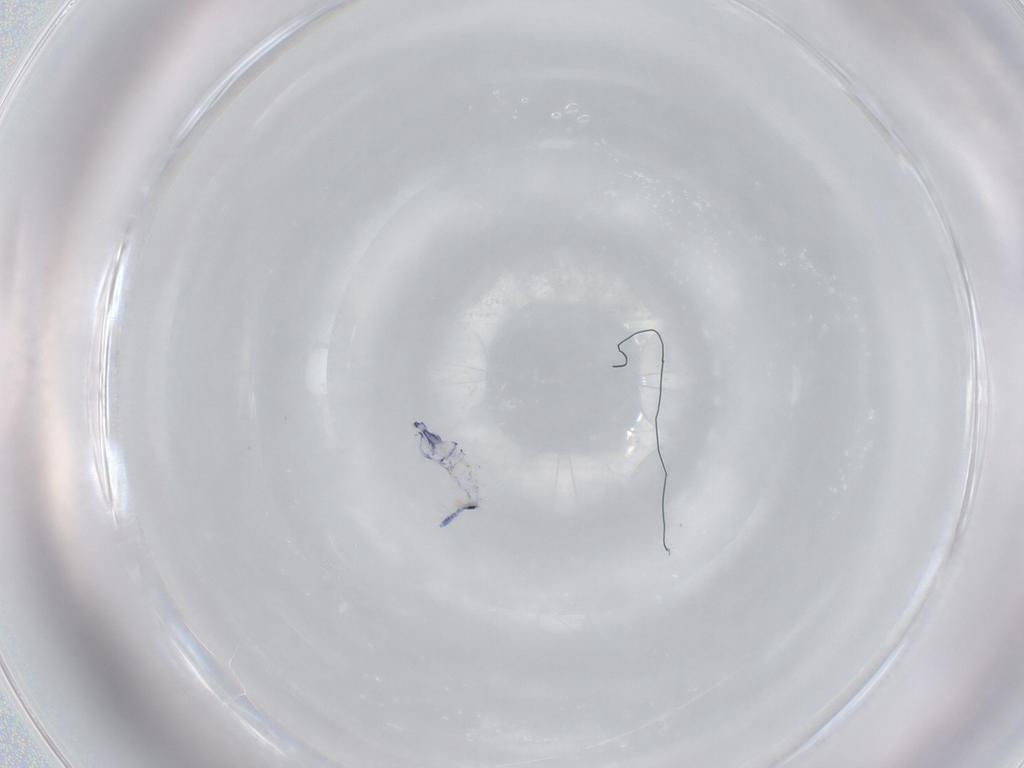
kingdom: Animalia
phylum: Arthropoda
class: Collembola
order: Entomobryomorpha
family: Entomobryidae
